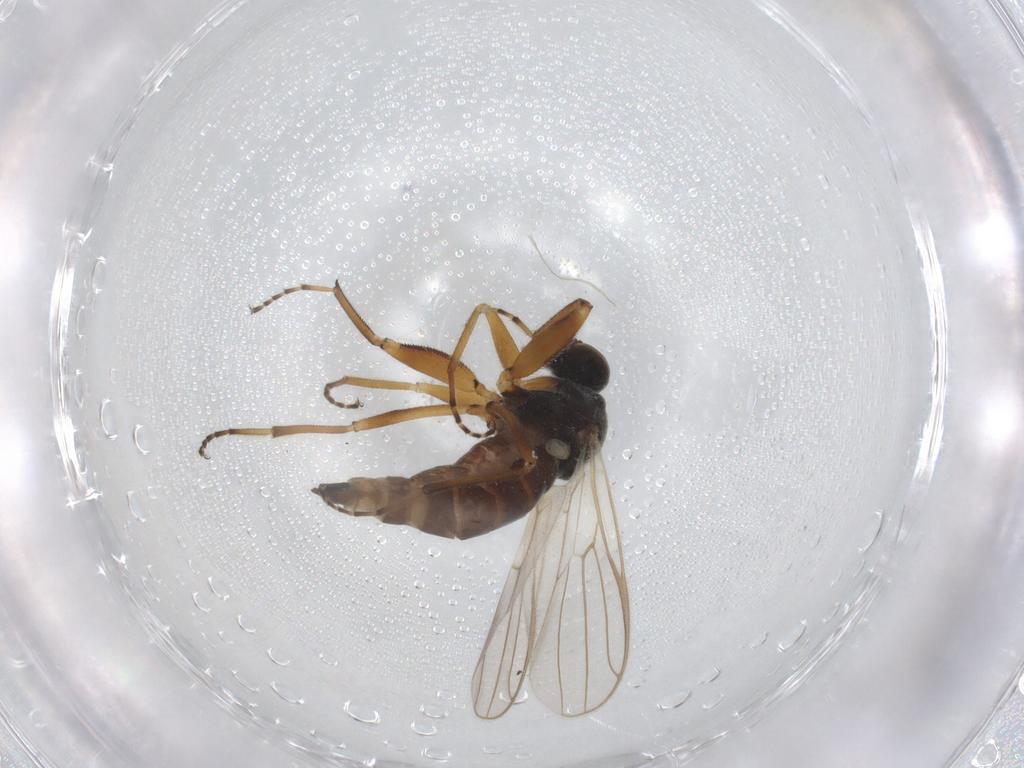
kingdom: Animalia
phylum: Arthropoda
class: Insecta
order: Diptera
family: Hybotidae
